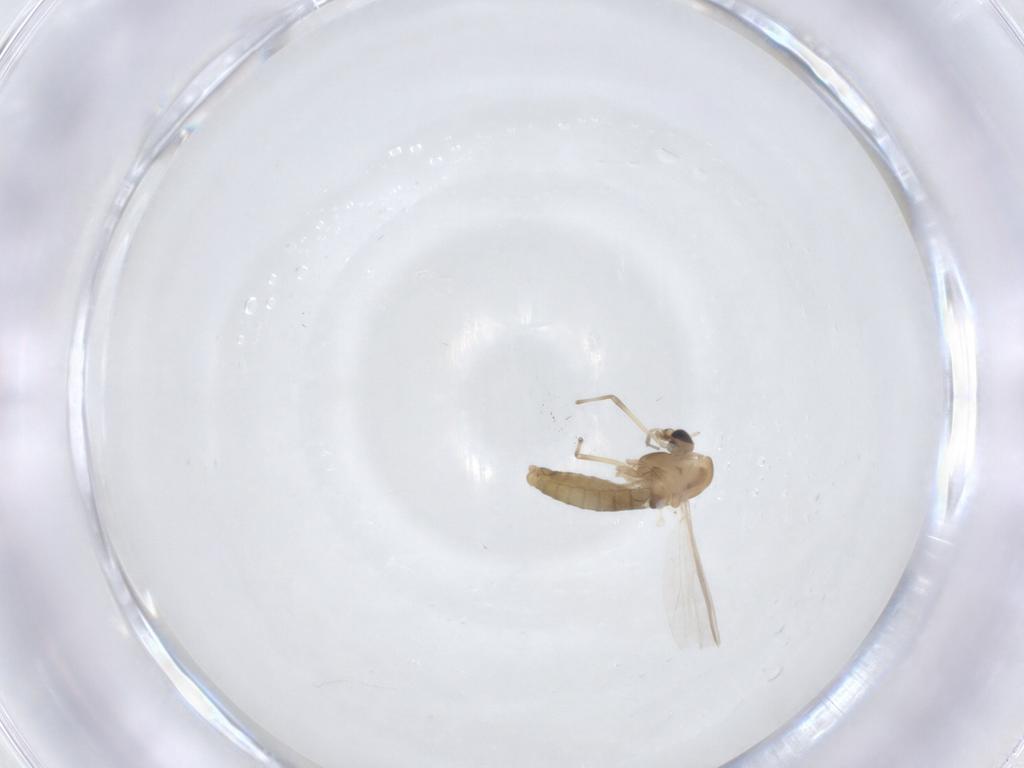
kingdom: Animalia
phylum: Arthropoda
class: Insecta
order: Diptera
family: Chironomidae
